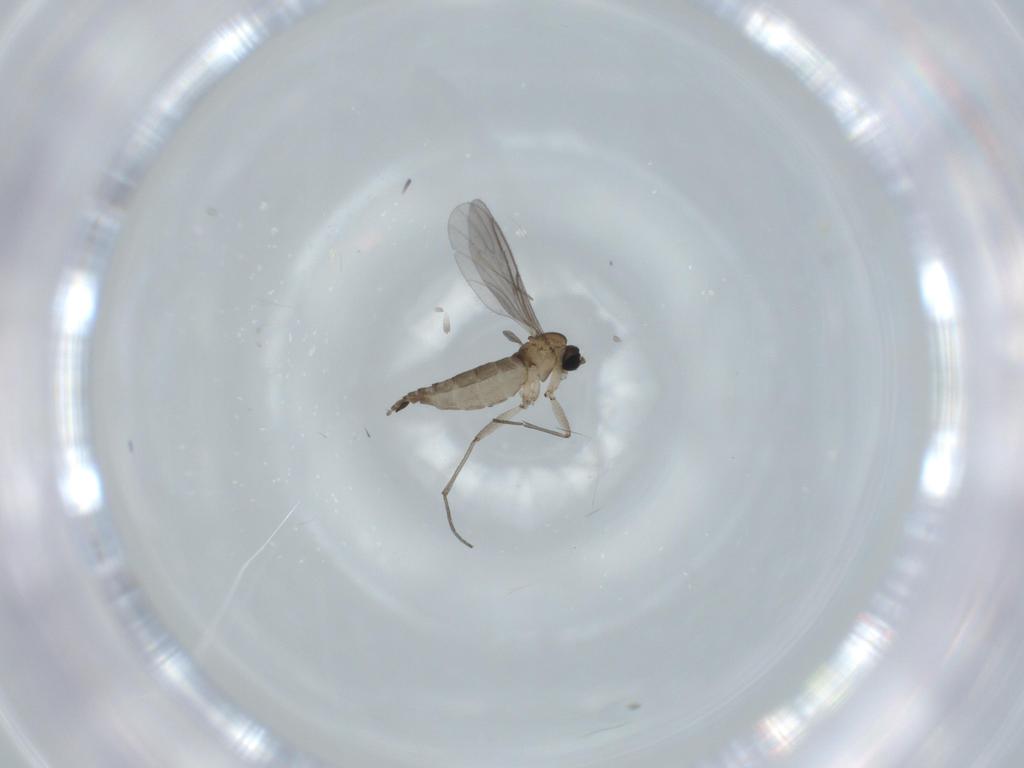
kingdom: Animalia
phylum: Arthropoda
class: Insecta
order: Diptera
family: Sciaridae
